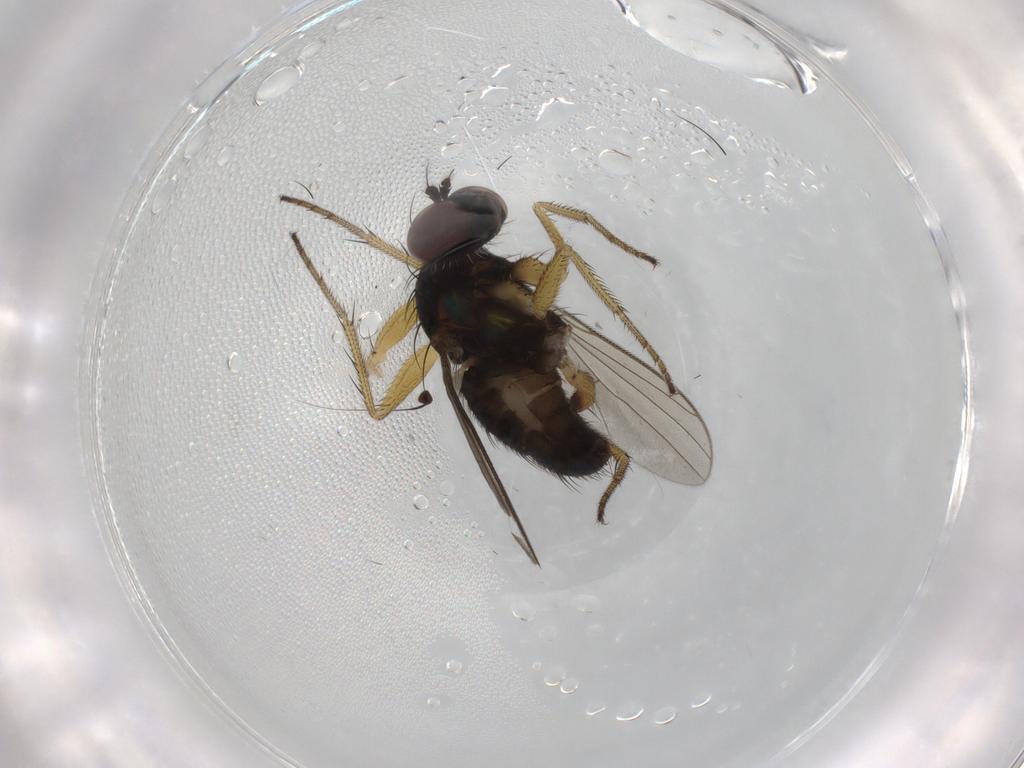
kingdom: Animalia
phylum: Arthropoda
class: Insecta
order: Diptera
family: Dolichopodidae
